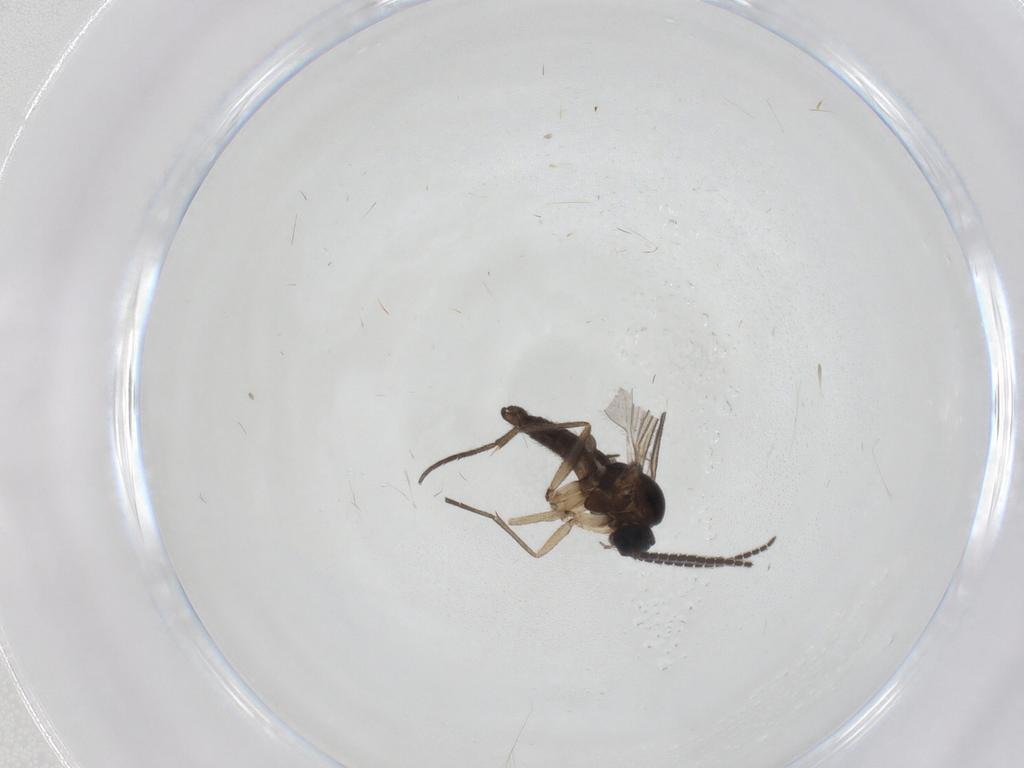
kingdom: Animalia
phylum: Arthropoda
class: Insecta
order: Diptera
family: Sciaridae
